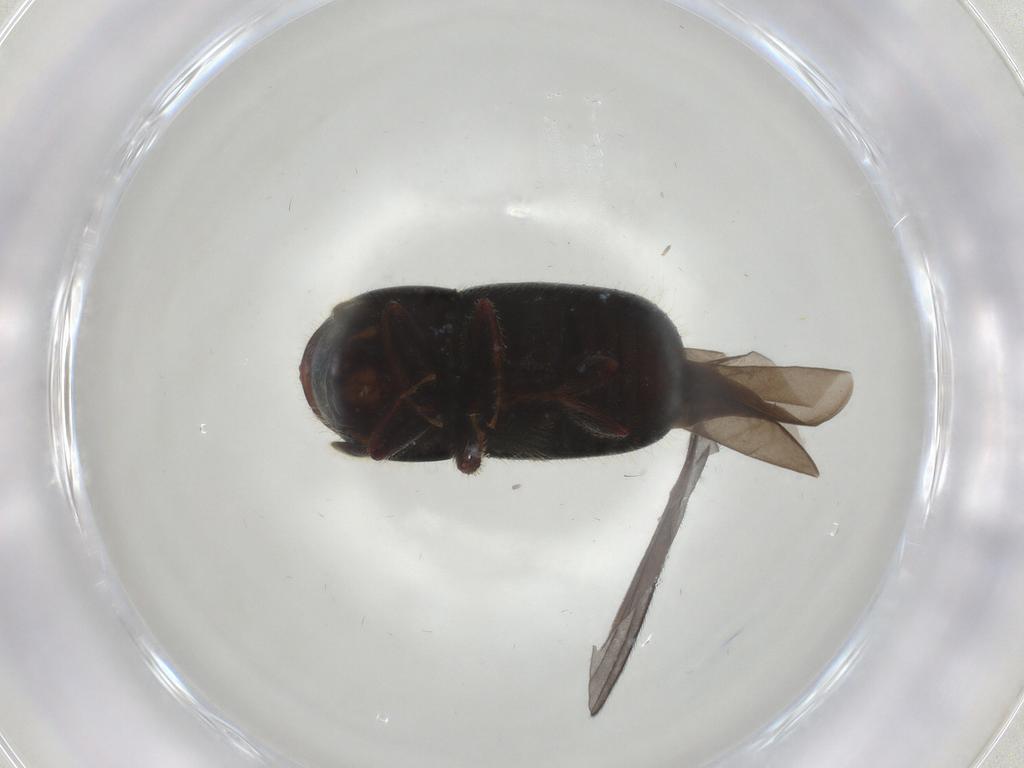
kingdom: Animalia
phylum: Arthropoda
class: Insecta
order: Coleoptera
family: Curculionidae
